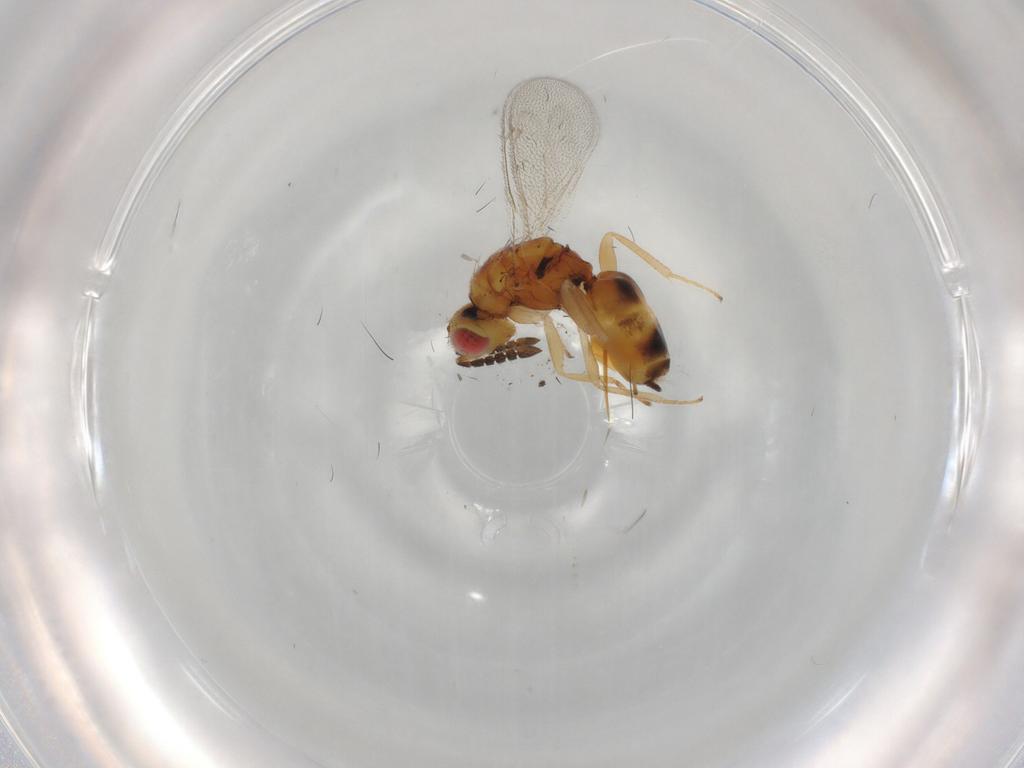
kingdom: Animalia
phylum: Arthropoda
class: Insecta
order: Hymenoptera
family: Eulophidae
